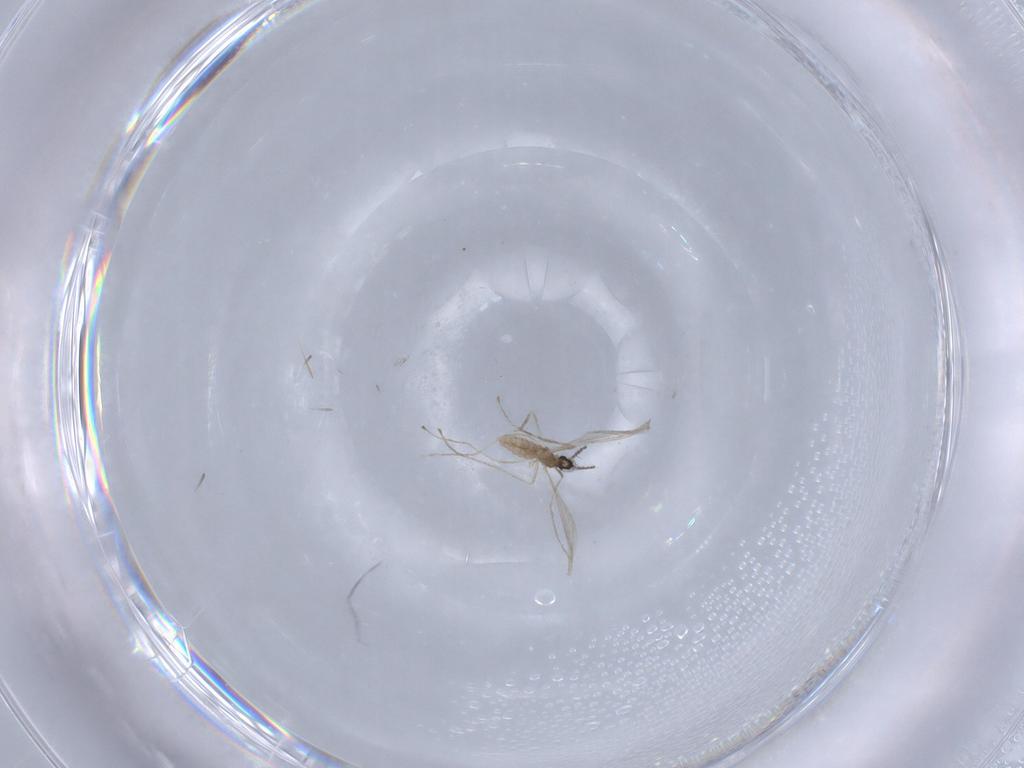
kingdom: Animalia
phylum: Arthropoda
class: Insecta
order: Diptera
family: Cecidomyiidae
